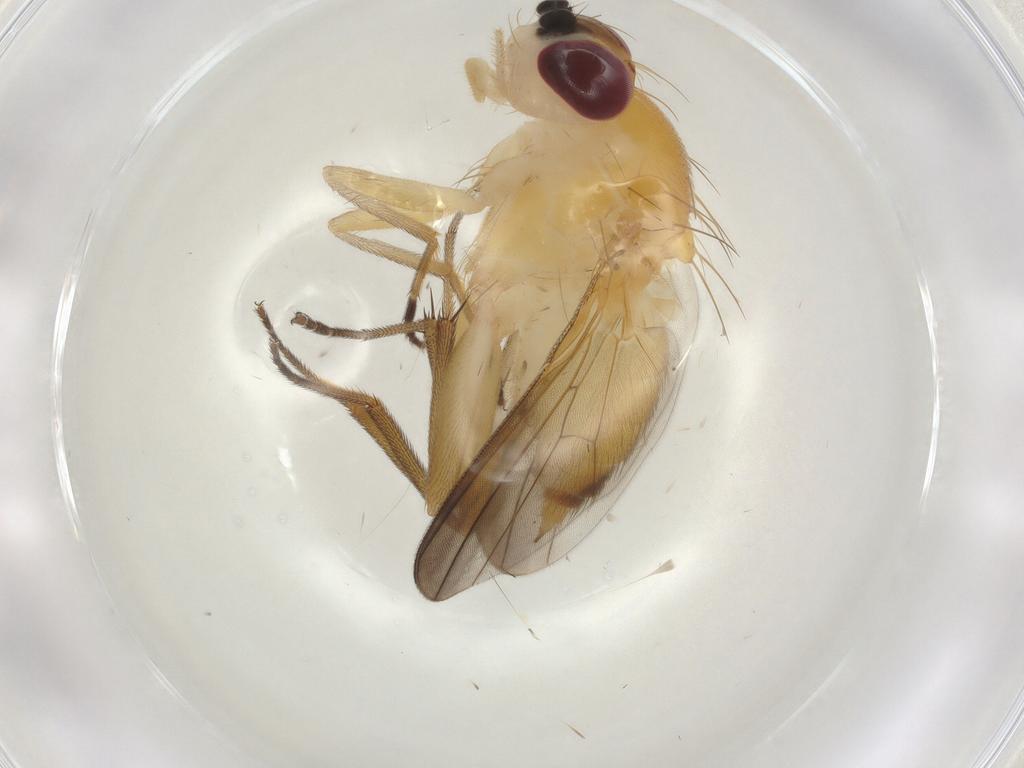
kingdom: Animalia
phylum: Arthropoda
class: Insecta
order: Diptera
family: Clusiidae
